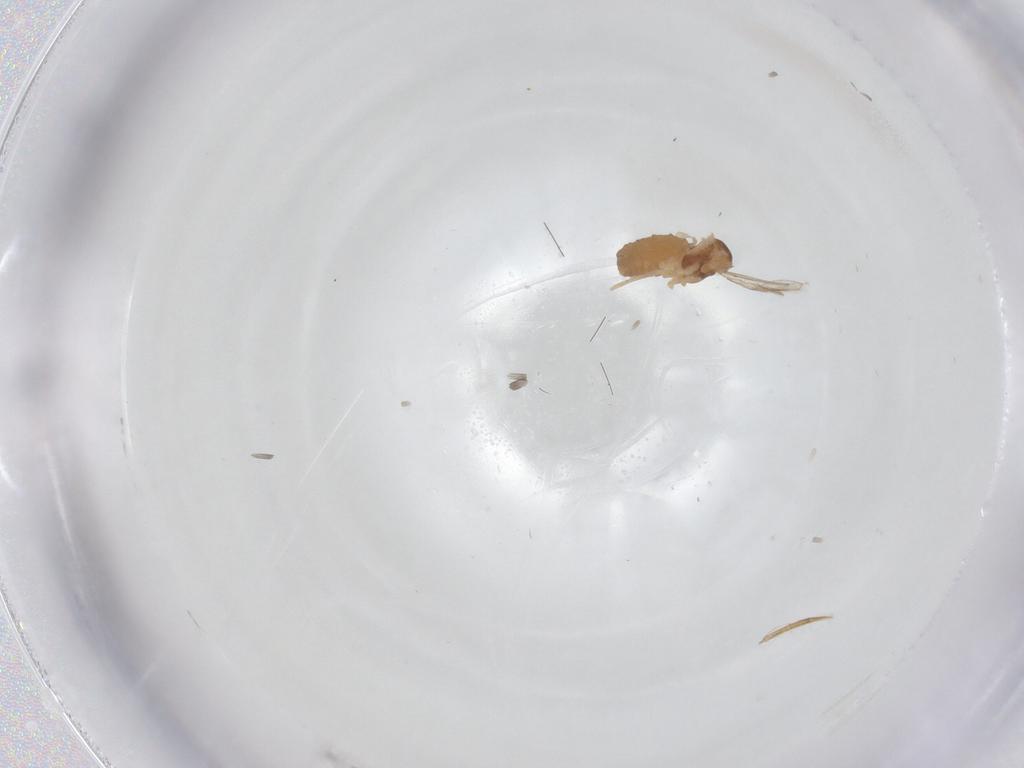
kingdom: Animalia
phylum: Arthropoda
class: Insecta
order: Diptera
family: Cecidomyiidae
